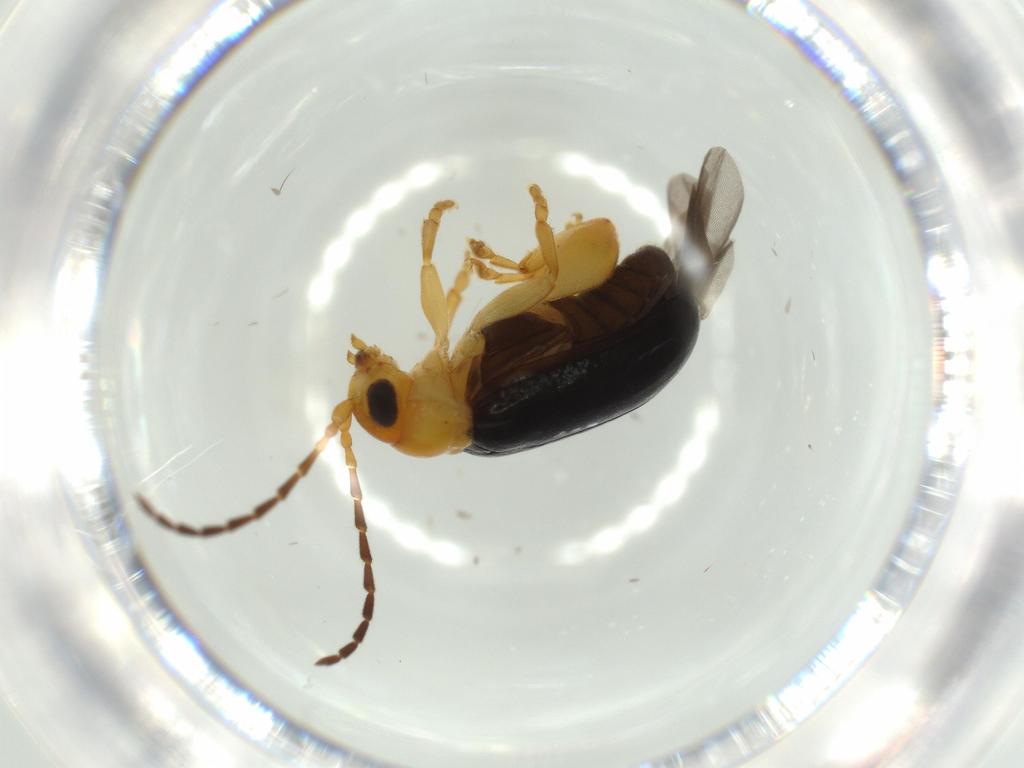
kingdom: Animalia
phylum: Arthropoda
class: Insecta
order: Coleoptera
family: Chrysomelidae
